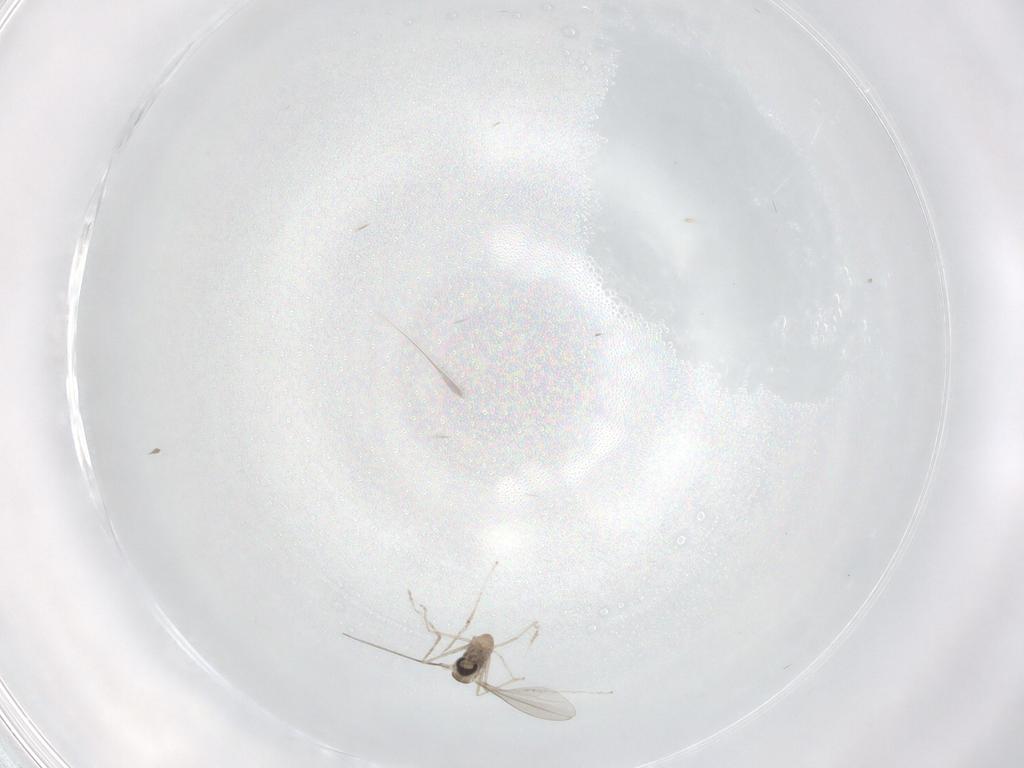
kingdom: Animalia
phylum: Arthropoda
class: Insecta
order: Diptera
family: Cecidomyiidae
